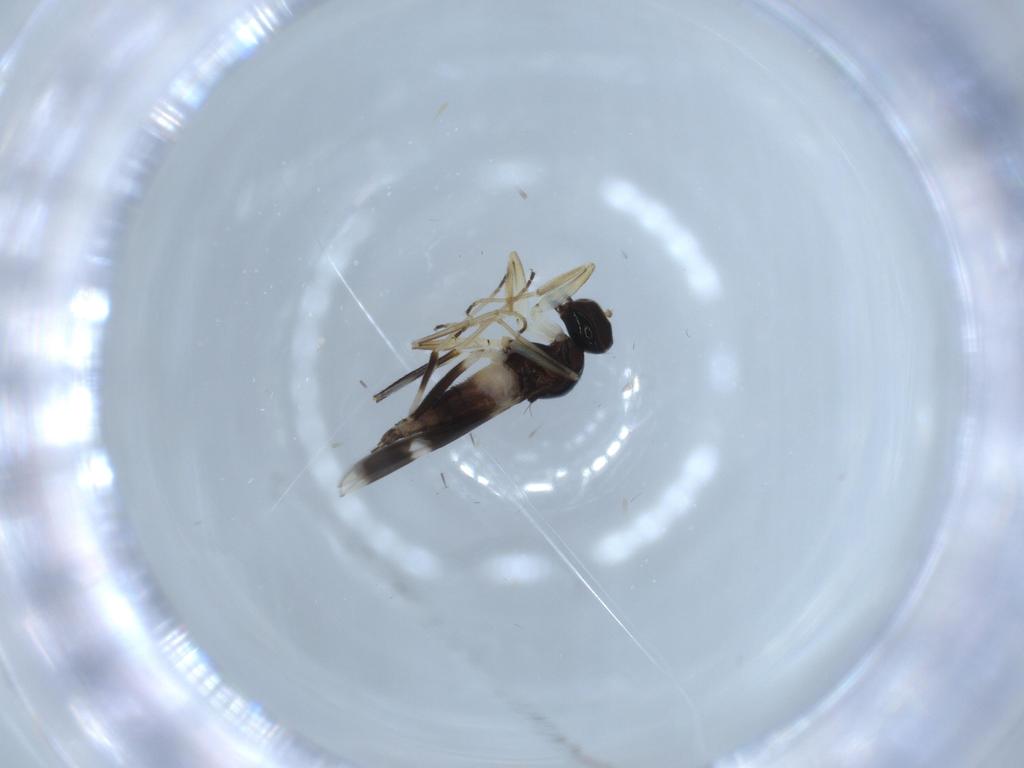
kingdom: Animalia
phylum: Arthropoda
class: Insecta
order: Diptera
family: Hybotidae
